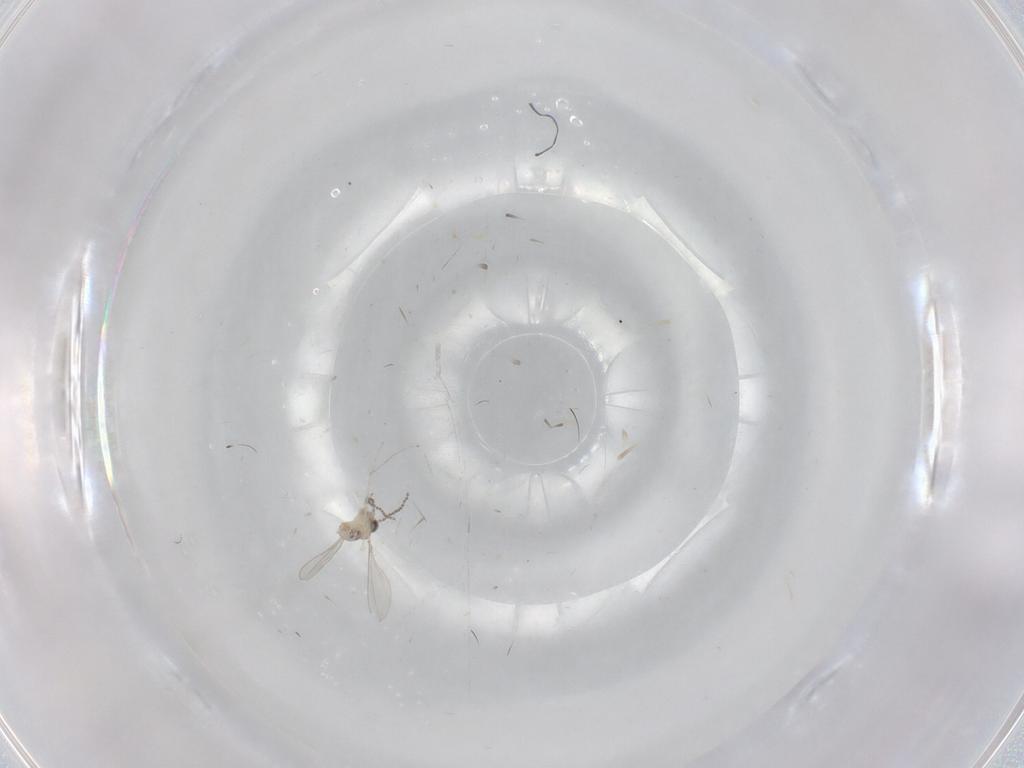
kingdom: Animalia
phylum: Arthropoda
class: Insecta
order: Diptera
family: Cecidomyiidae
